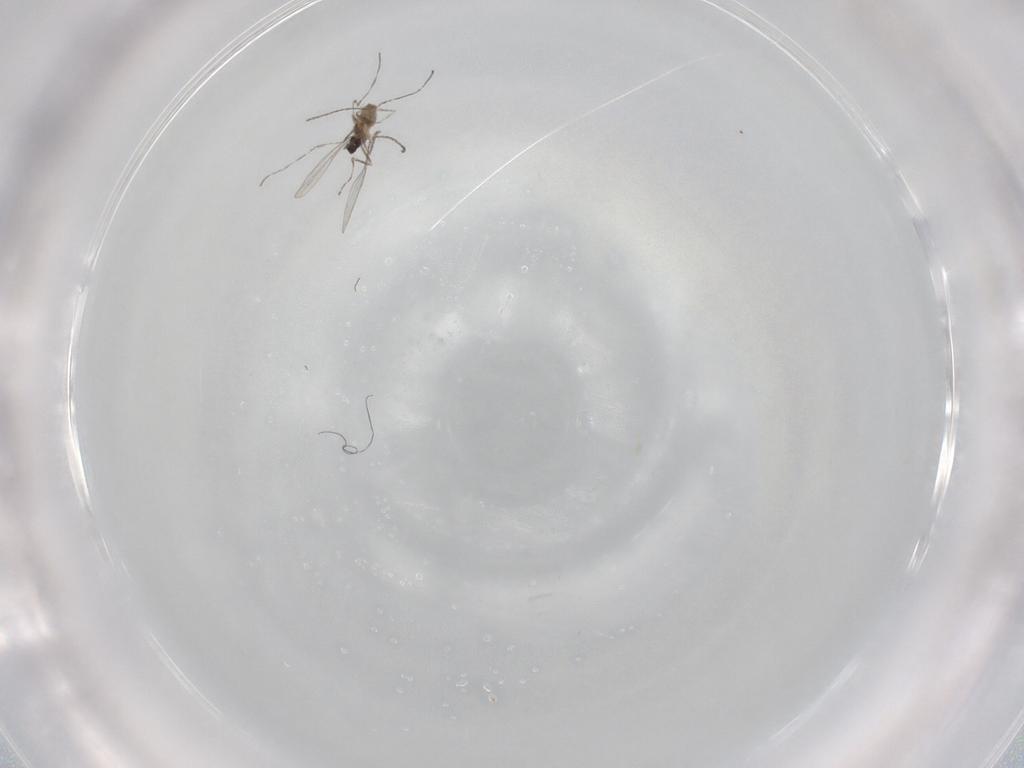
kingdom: Animalia
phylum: Arthropoda
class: Insecta
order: Diptera
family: Cecidomyiidae
